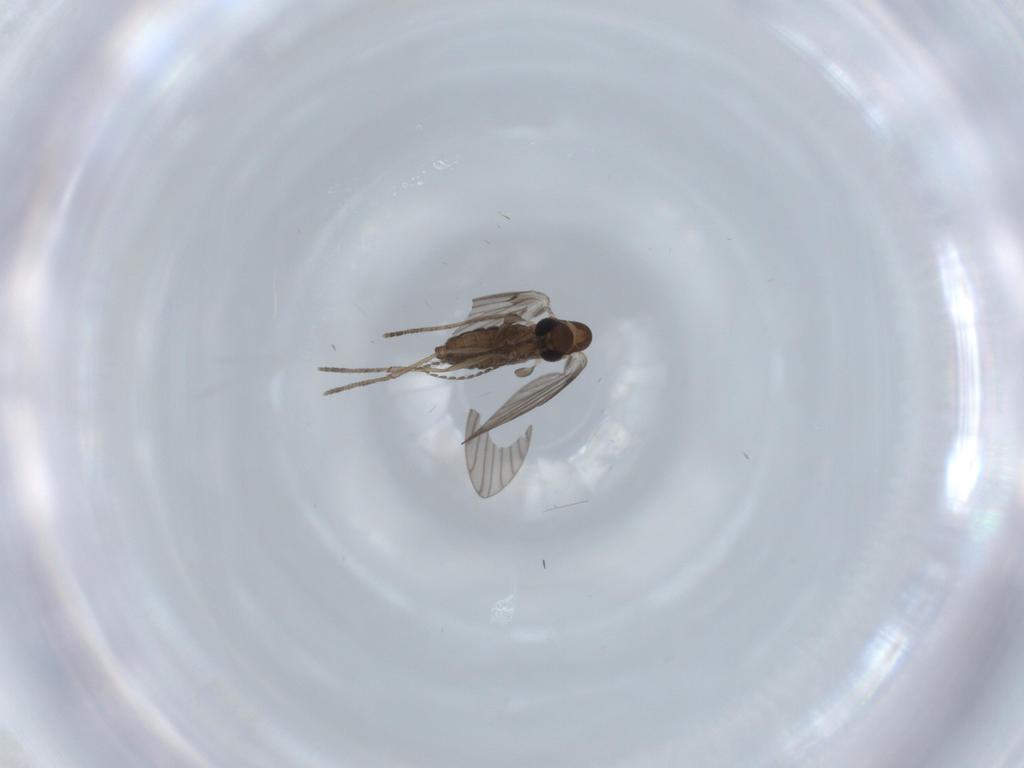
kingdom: Animalia
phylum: Arthropoda
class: Insecta
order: Diptera
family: Psychodidae
